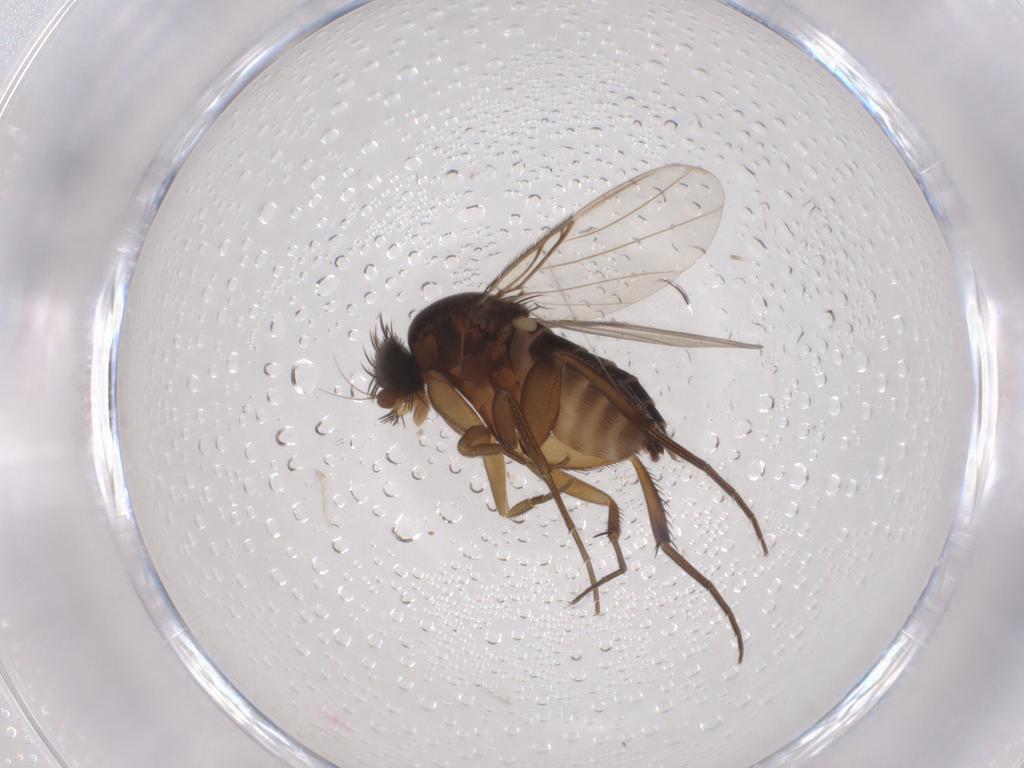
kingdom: Animalia
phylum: Arthropoda
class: Insecta
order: Diptera
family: Phoridae
